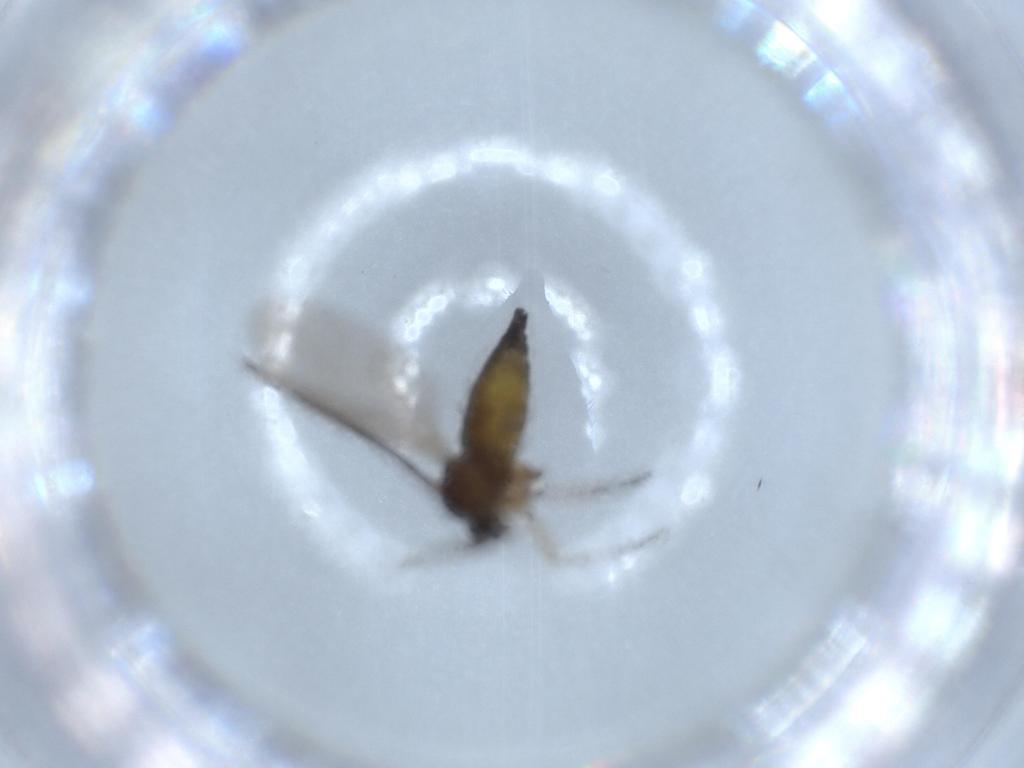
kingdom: Animalia
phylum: Arthropoda
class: Insecta
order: Diptera
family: Sciaridae
